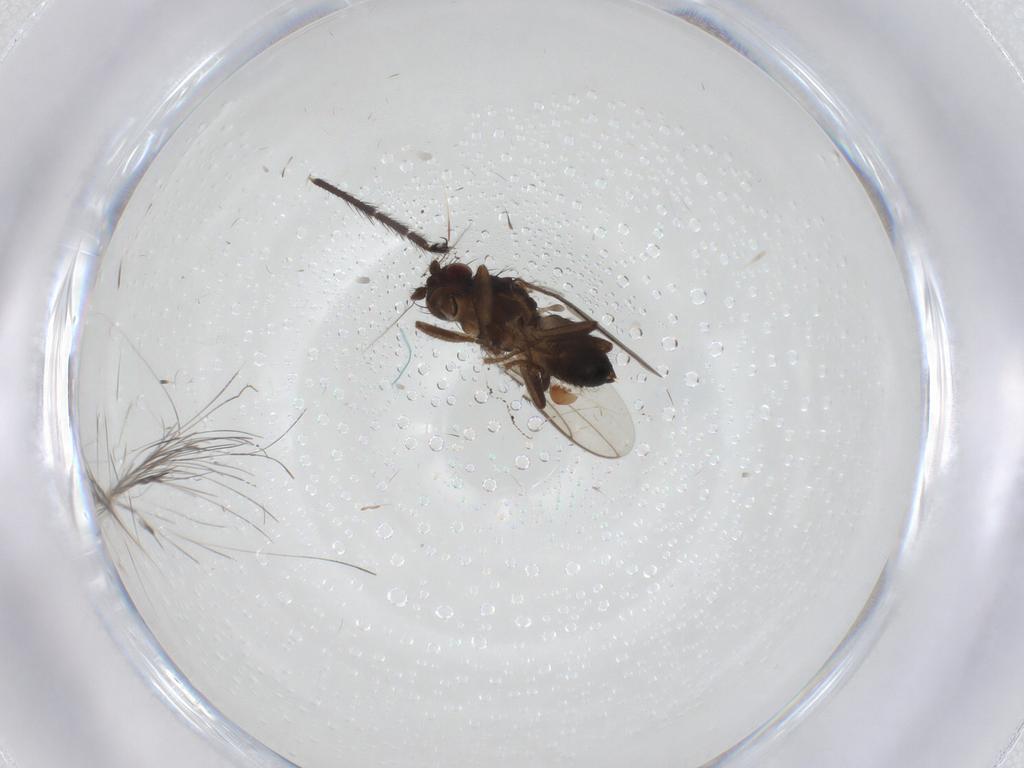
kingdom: Animalia
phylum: Arthropoda
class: Insecta
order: Diptera
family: Sphaeroceridae
